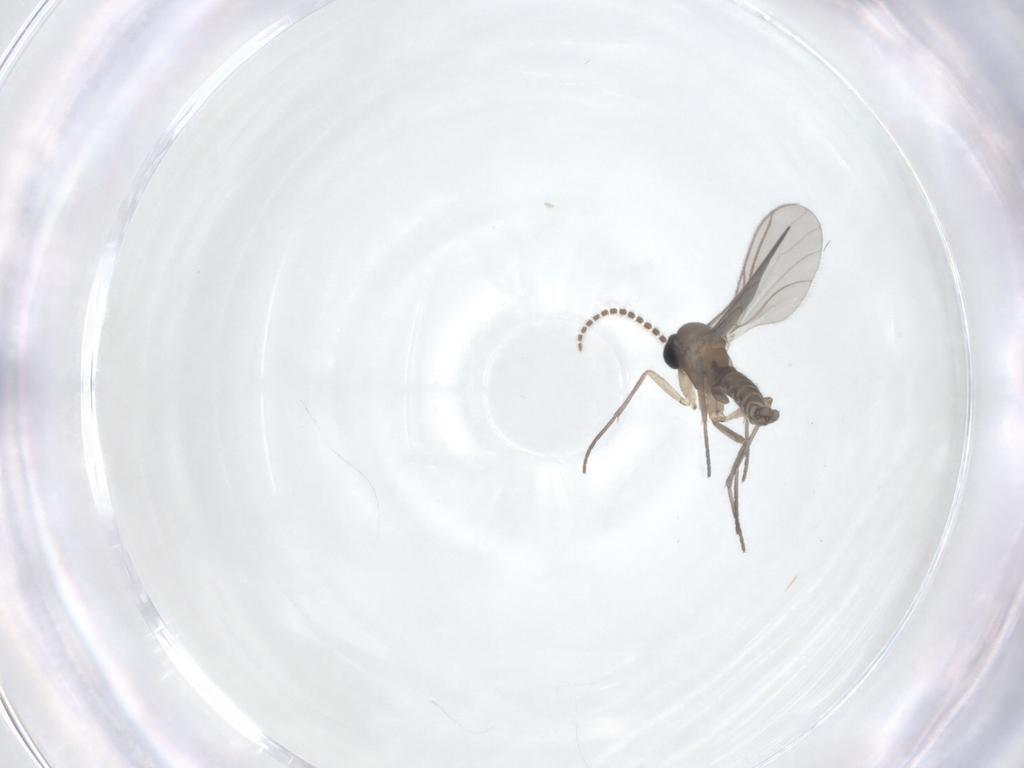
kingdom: Animalia
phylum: Arthropoda
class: Insecta
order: Diptera
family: Sciaridae
